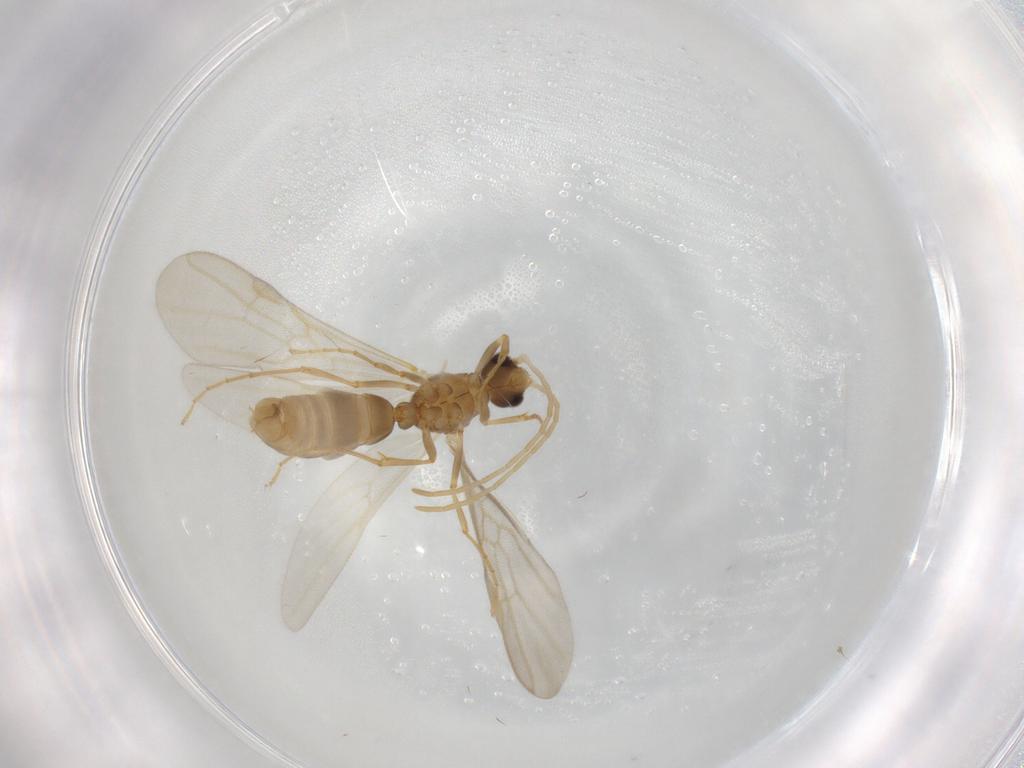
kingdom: Animalia
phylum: Arthropoda
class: Insecta
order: Hymenoptera
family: Formicidae
